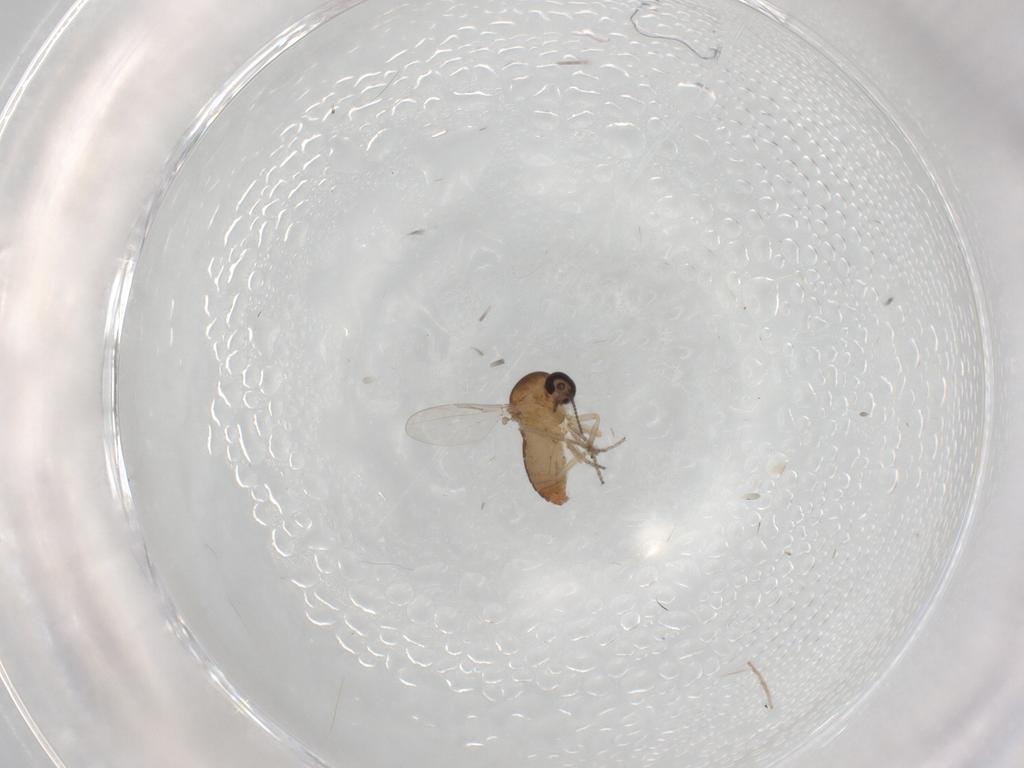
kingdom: Animalia
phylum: Arthropoda
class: Insecta
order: Diptera
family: Ceratopogonidae
